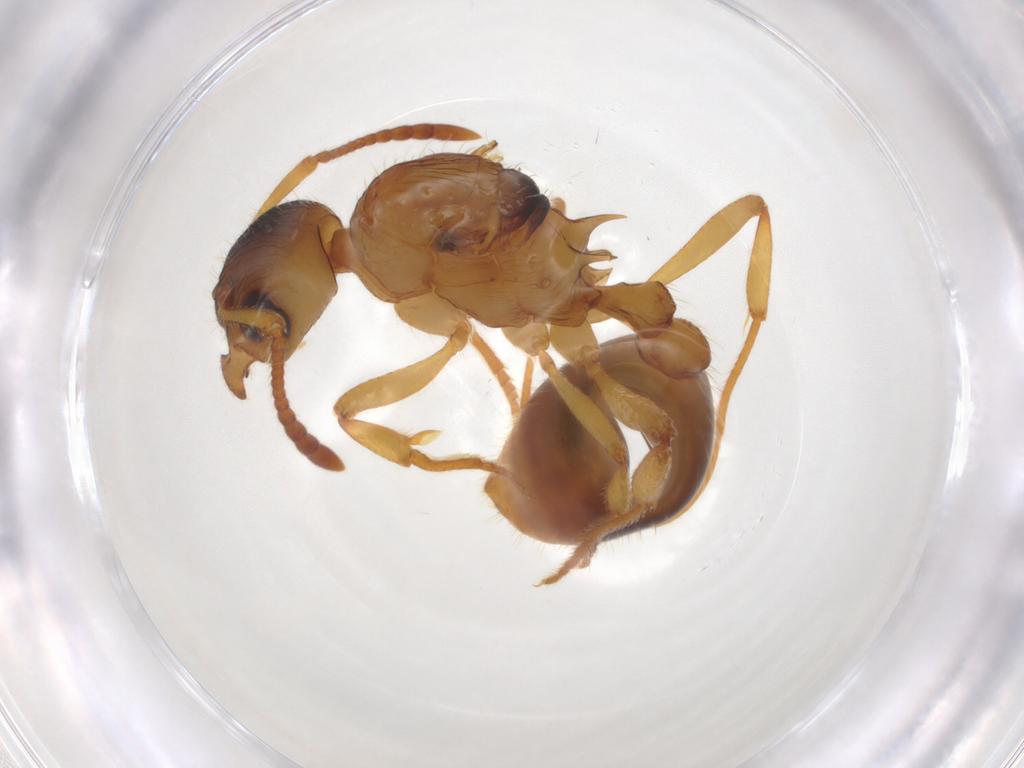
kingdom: Animalia
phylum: Arthropoda
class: Insecta
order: Hymenoptera
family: Formicidae
